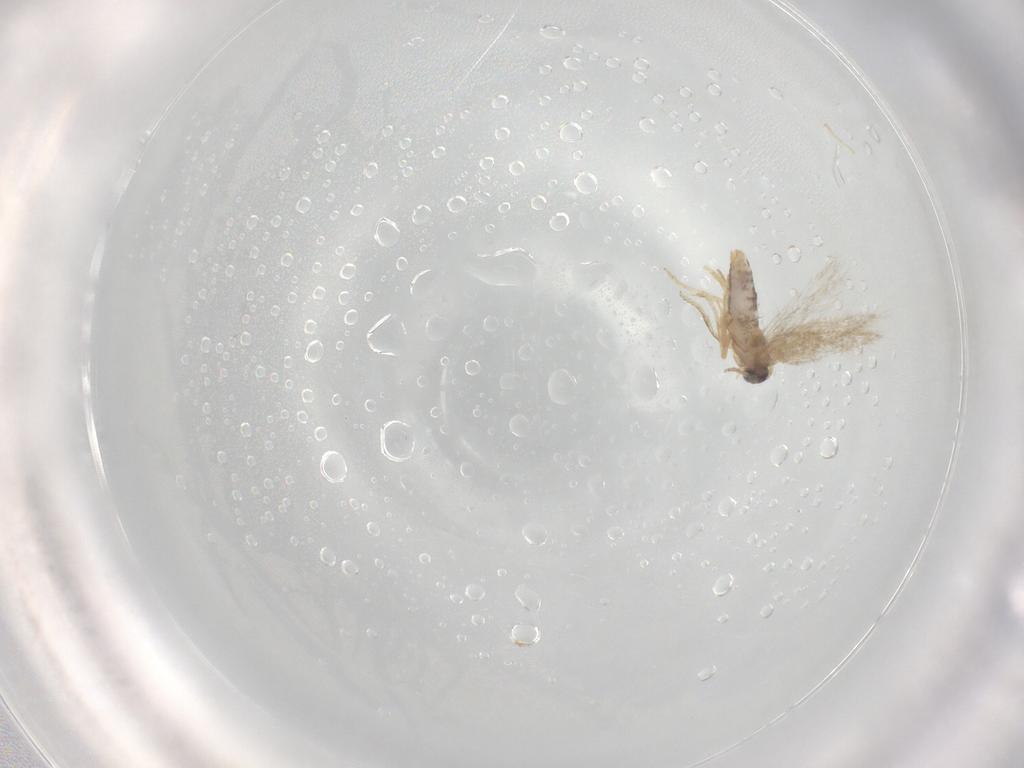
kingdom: Animalia
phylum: Arthropoda
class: Insecta
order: Lepidoptera
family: Nepticulidae
